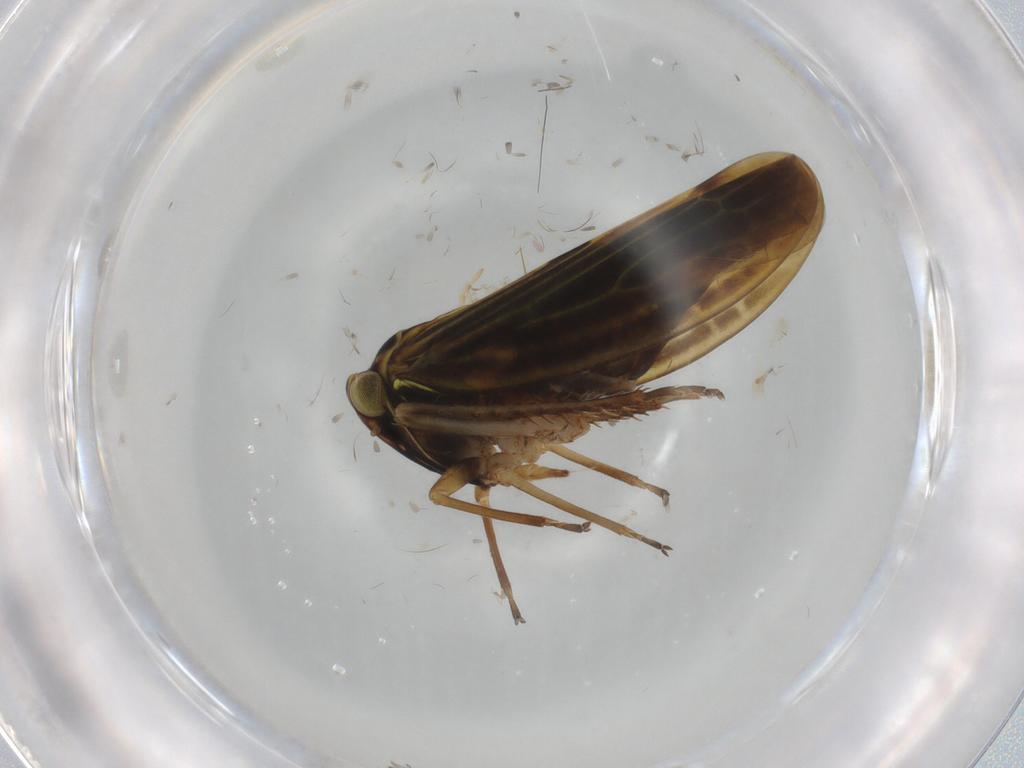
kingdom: Animalia
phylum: Arthropoda
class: Insecta
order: Hemiptera
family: Cicadellidae
